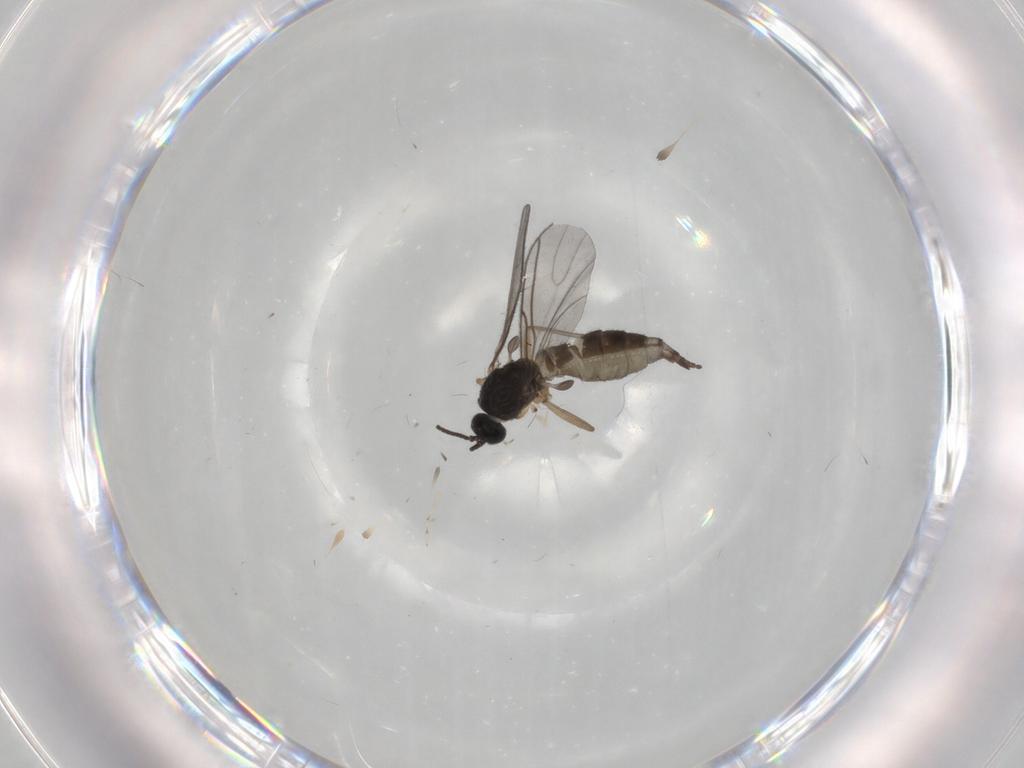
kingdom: Animalia
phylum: Arthropoda
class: Insecta
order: Diptera
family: Sciaridae
